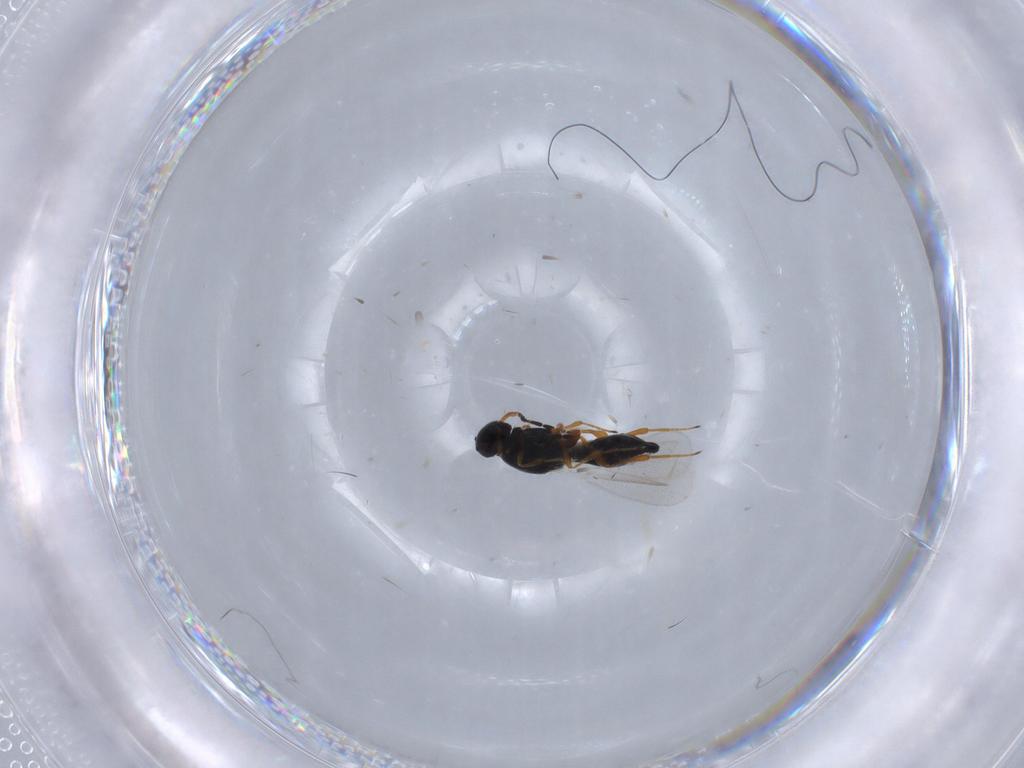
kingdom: Animalia
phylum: Arthropoda
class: Insecta
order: Hymenoptera
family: Platygastridae
